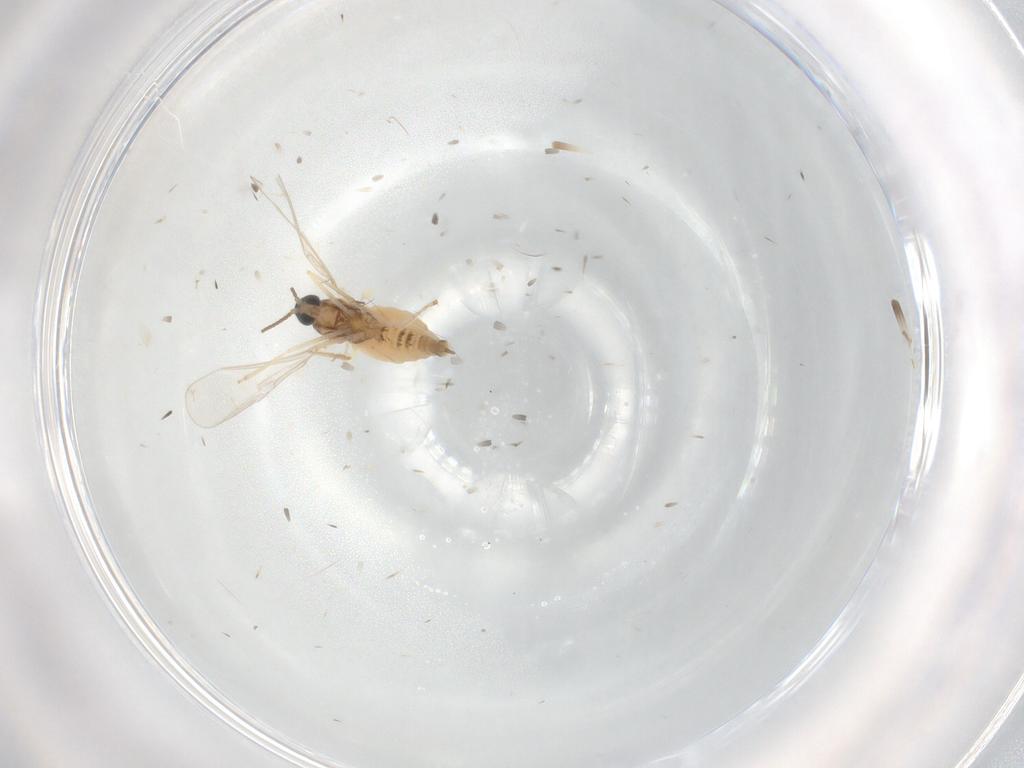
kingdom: Animalia
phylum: Arthropoda
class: Insecta
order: Diptera
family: Cecidomyiidae
